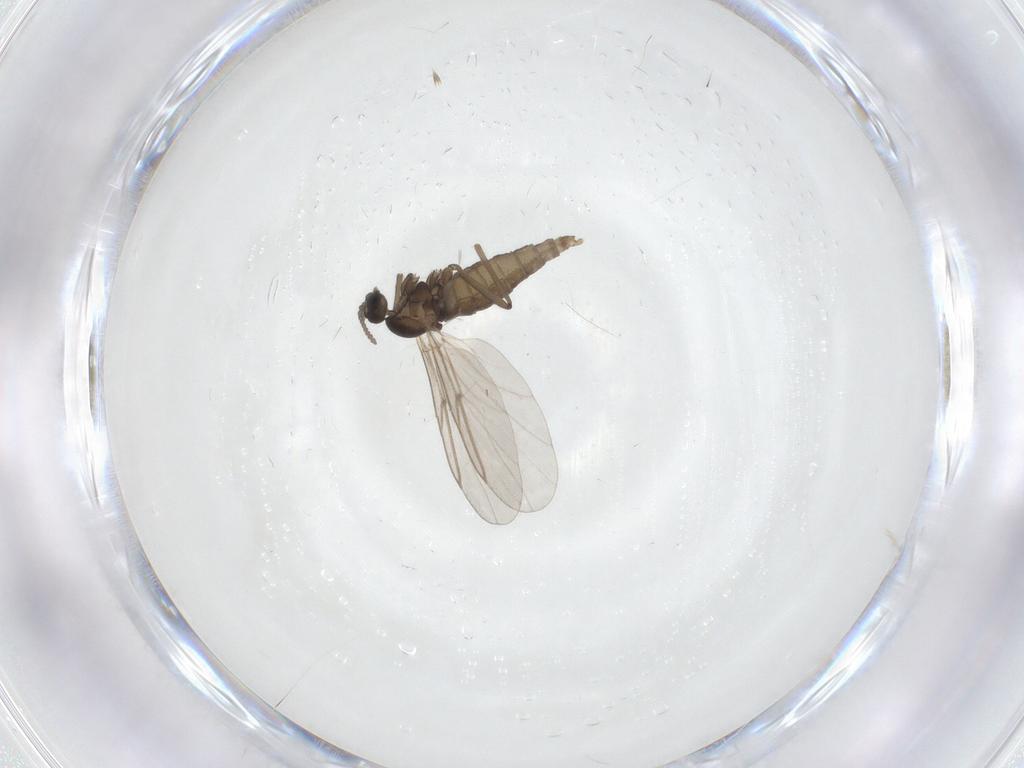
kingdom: Animalia
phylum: Arthropoda
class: Insecta
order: Diptera
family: Cecidomyiidae
